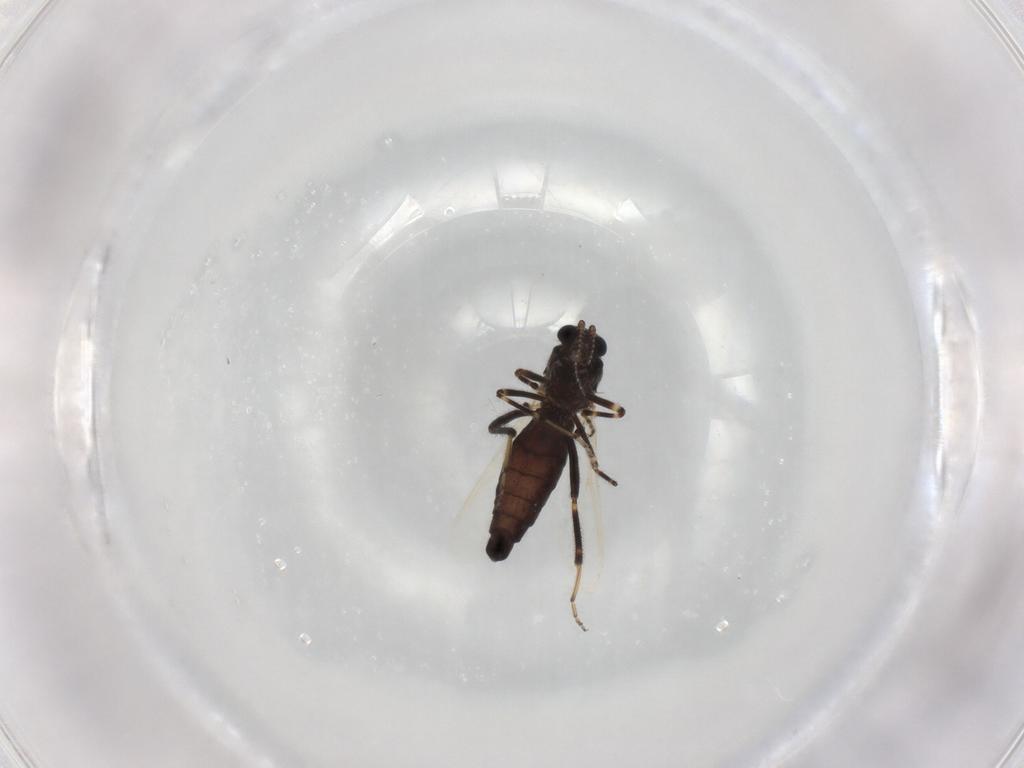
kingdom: Animalia
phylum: Arthropoda
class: Insecta
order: Diptera
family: Ceratopogonidae
